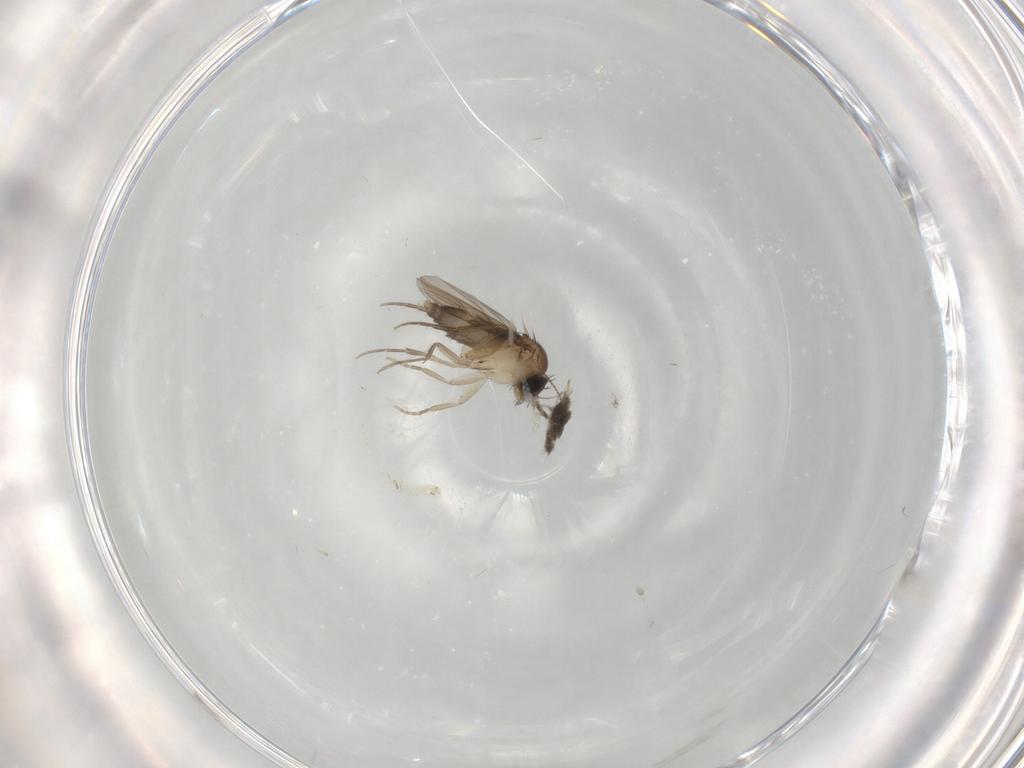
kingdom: Animalia
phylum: Arthropoda
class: Insecta
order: Diptera
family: Phoridae
